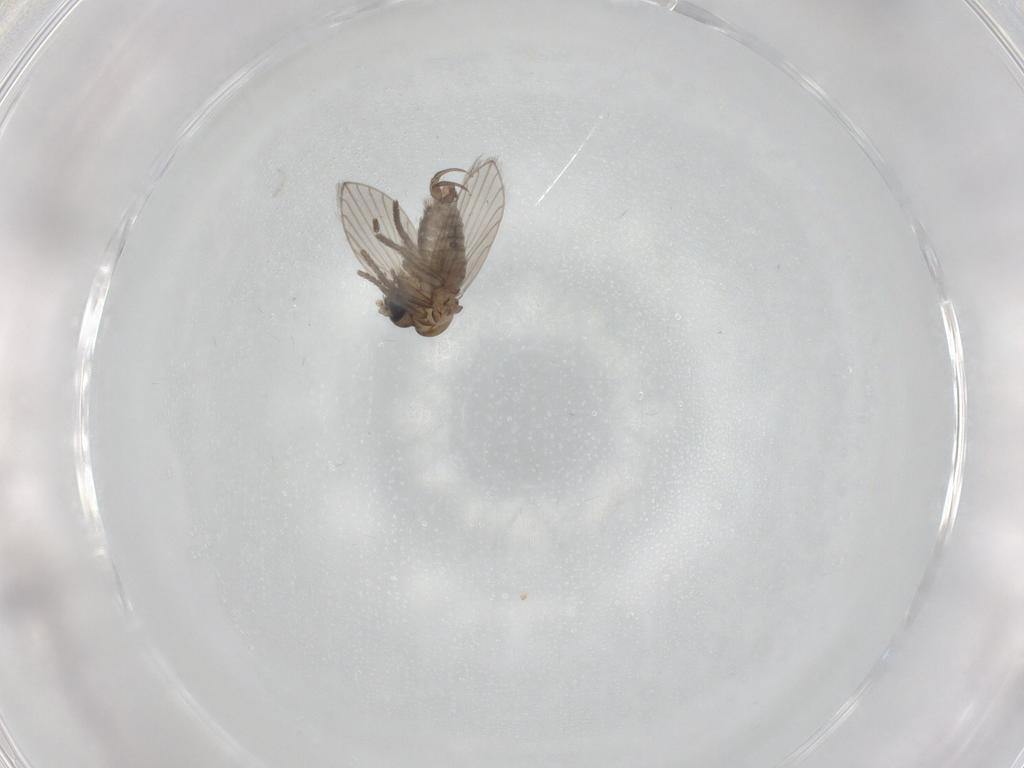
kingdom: Animalia
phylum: Arthropoda
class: Insecta
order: Diptera
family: Psychodidae
